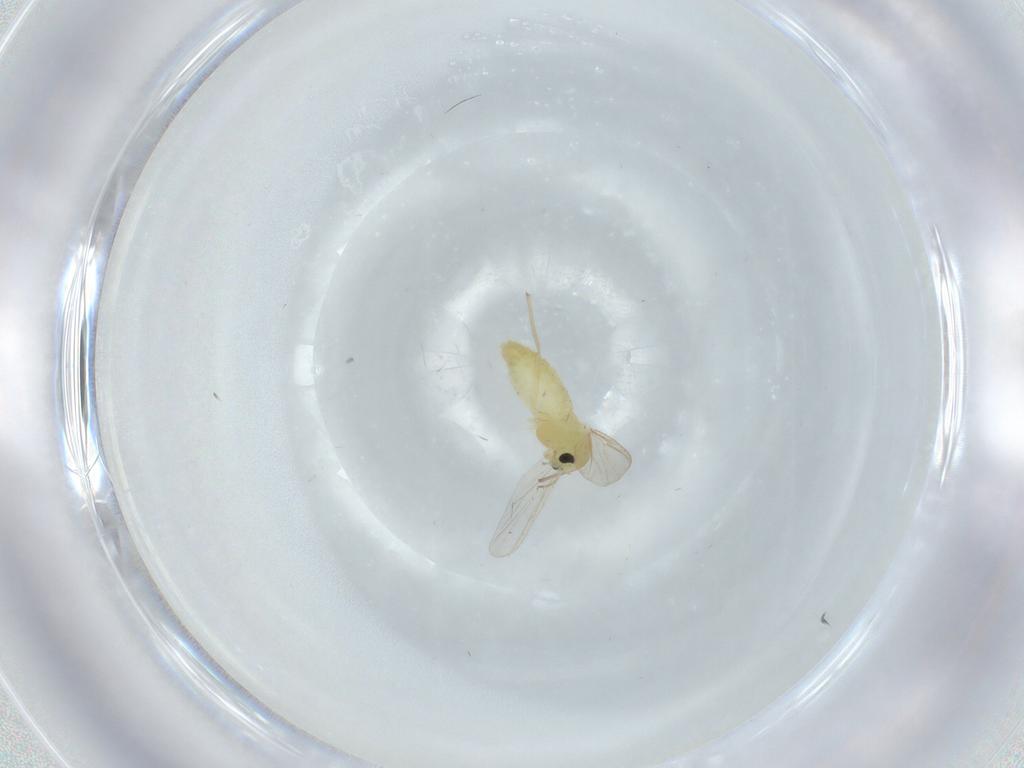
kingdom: Animalia
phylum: Arthropoda
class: Insecta
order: Diptera
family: Chironomidae
